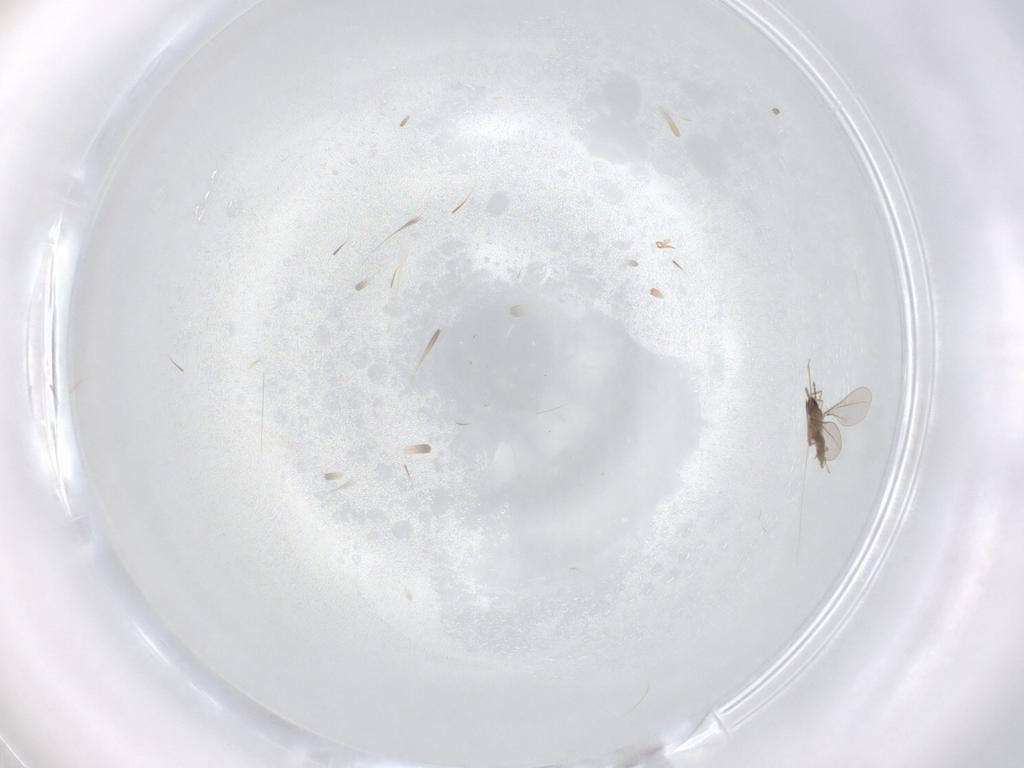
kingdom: Animalia
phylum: Arthropoda
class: Insecta
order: Diptera
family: Cecidomyiidae
